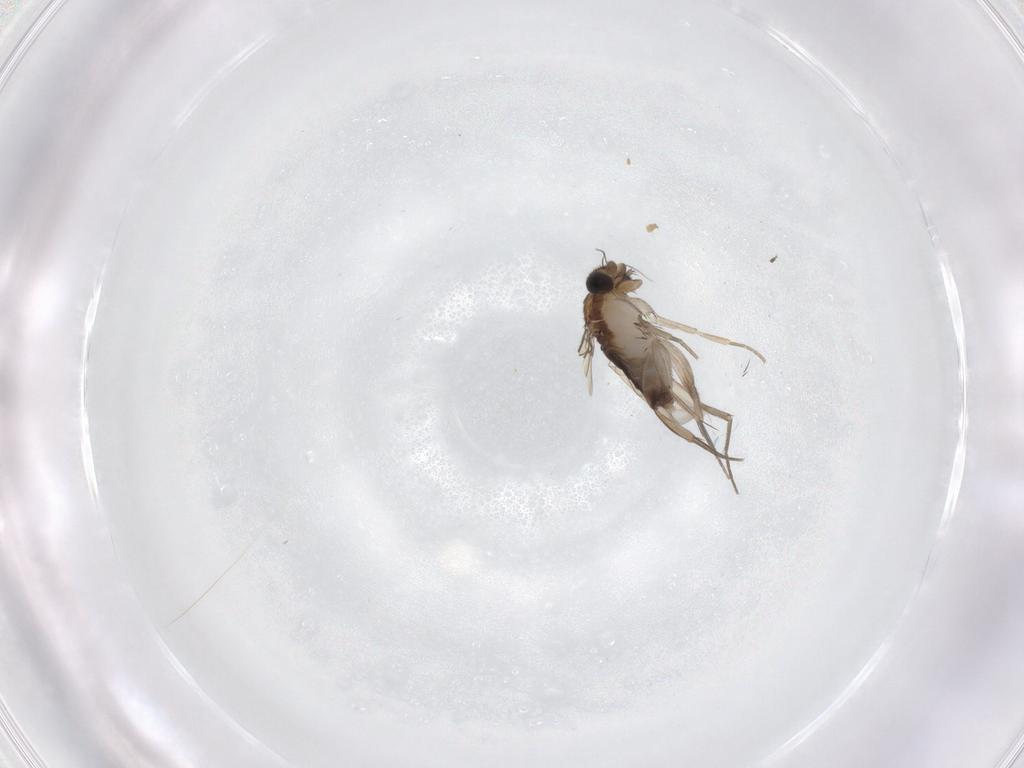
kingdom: Animalia
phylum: Arthropoda
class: Insecta
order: Diptera
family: Phoridae
